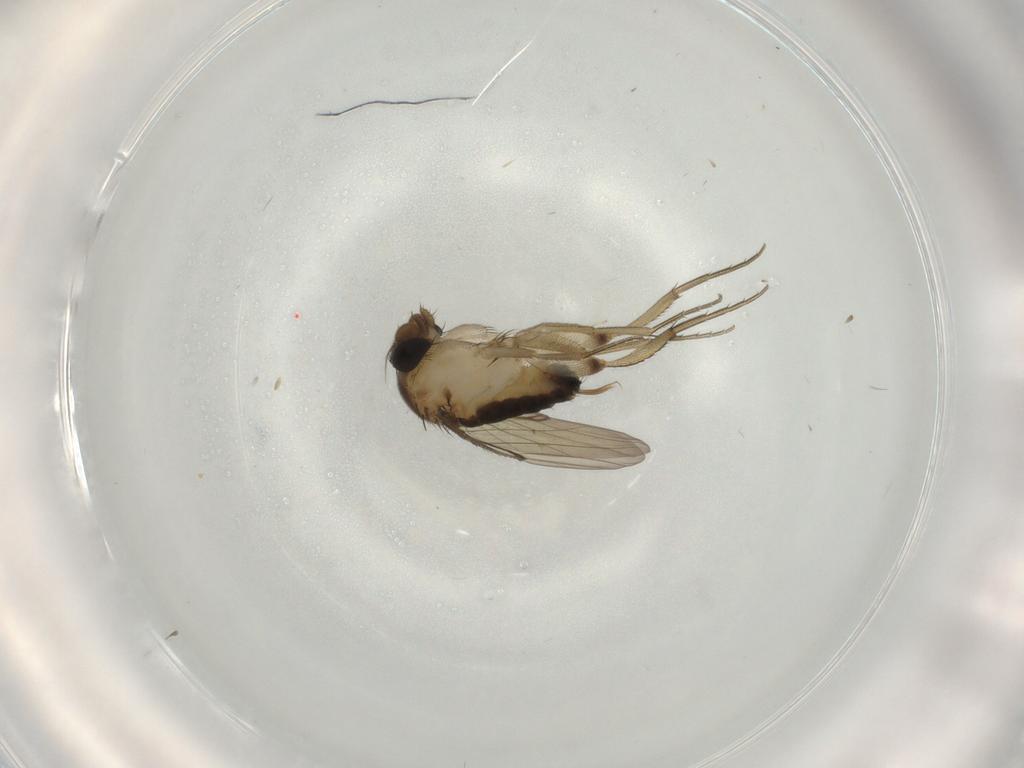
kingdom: Animalia
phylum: Arthropoda
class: Insecta
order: Diptera
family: Phoridae
